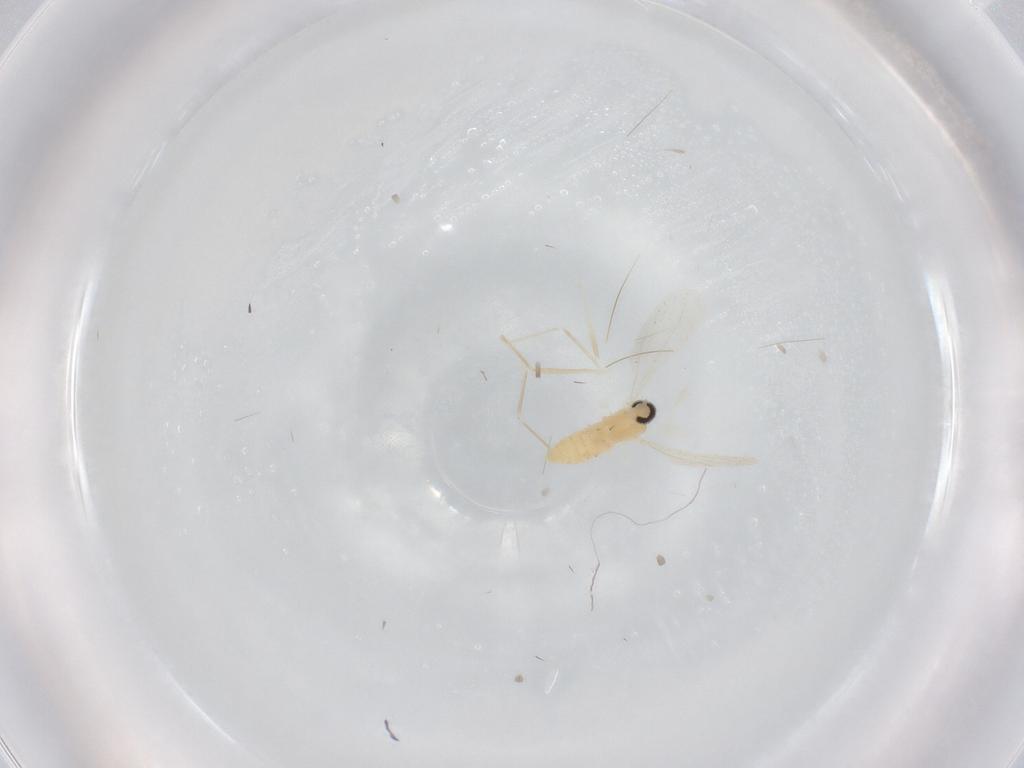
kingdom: Animalia
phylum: Arthropoda
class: Insecta
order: Diptera
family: Cecidomyiidae
